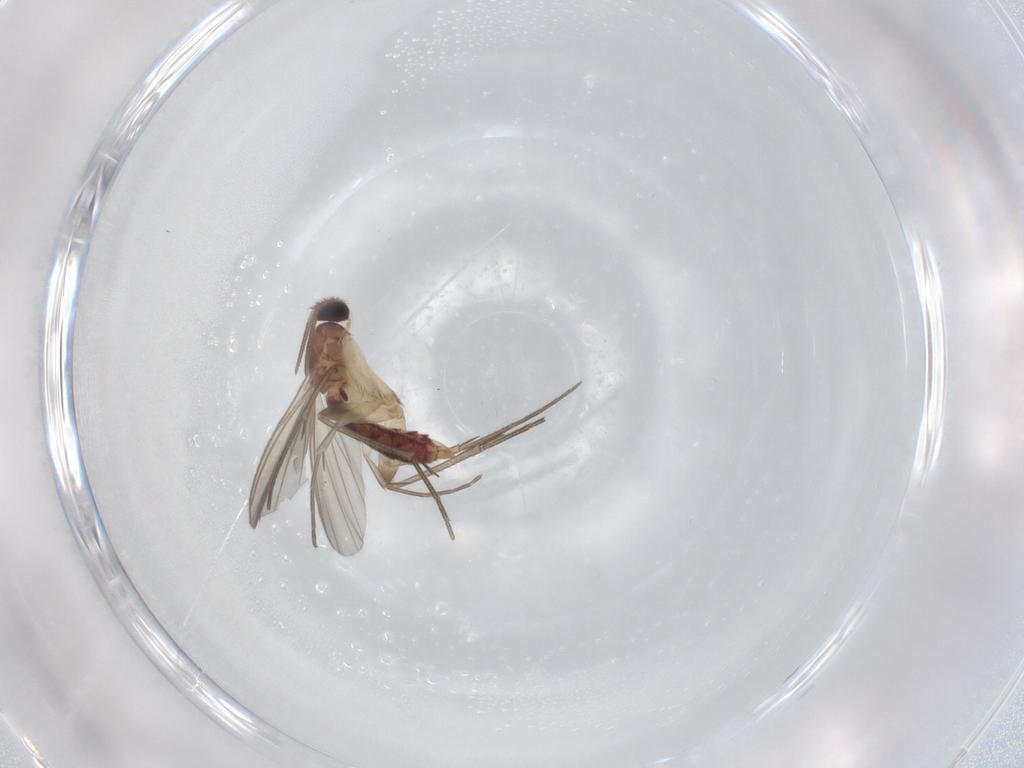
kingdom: Animalia
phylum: Arthropoda
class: Insecta
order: Diptera
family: Mycetophilidae
